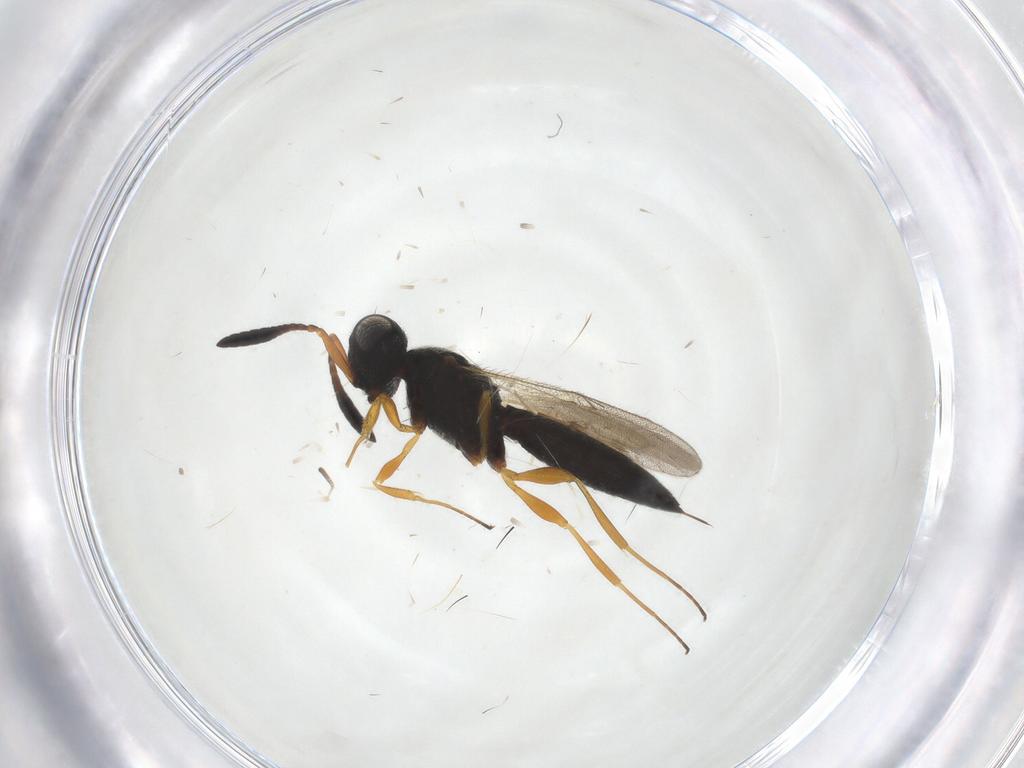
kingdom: Animalia
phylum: Arthropoda
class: Insecta
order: Hymenoptera
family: Scelionidae
